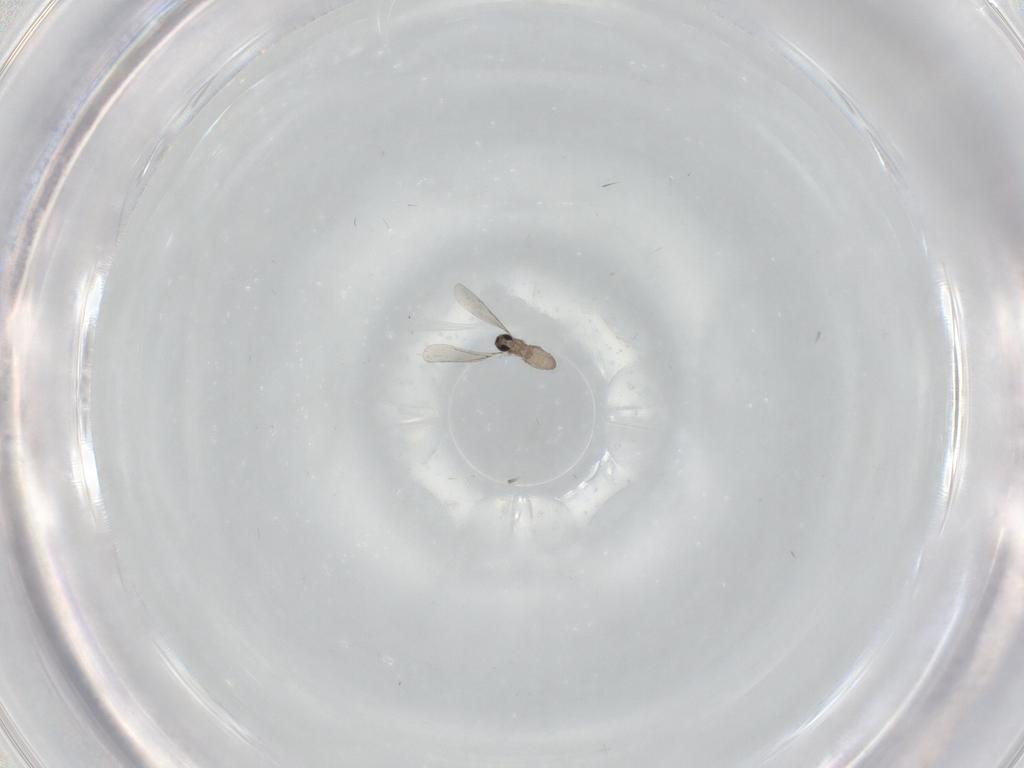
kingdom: Animalia
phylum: Arthropoda
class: Insecta
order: Diptera
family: Cecidomyiidae
